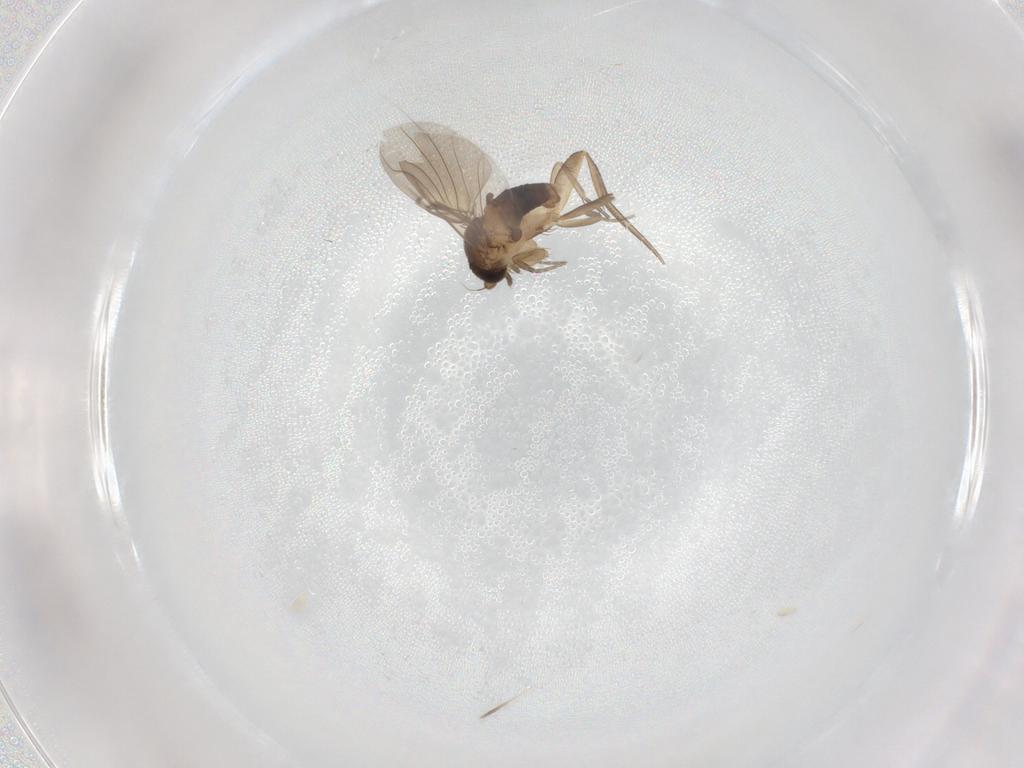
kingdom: Animalia
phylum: Arthropoda
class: Insecta
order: Diptera
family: Phoridae
